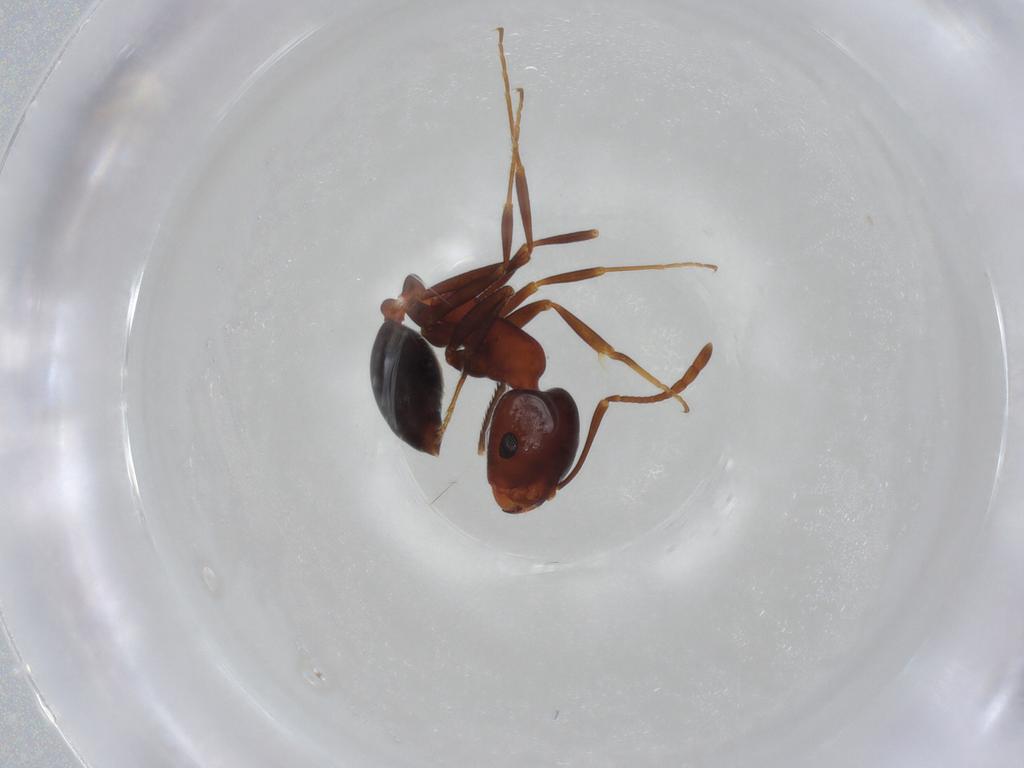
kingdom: Animalia
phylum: Arthropoda
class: Insecta
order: Hymenoptera
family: Formicidae
